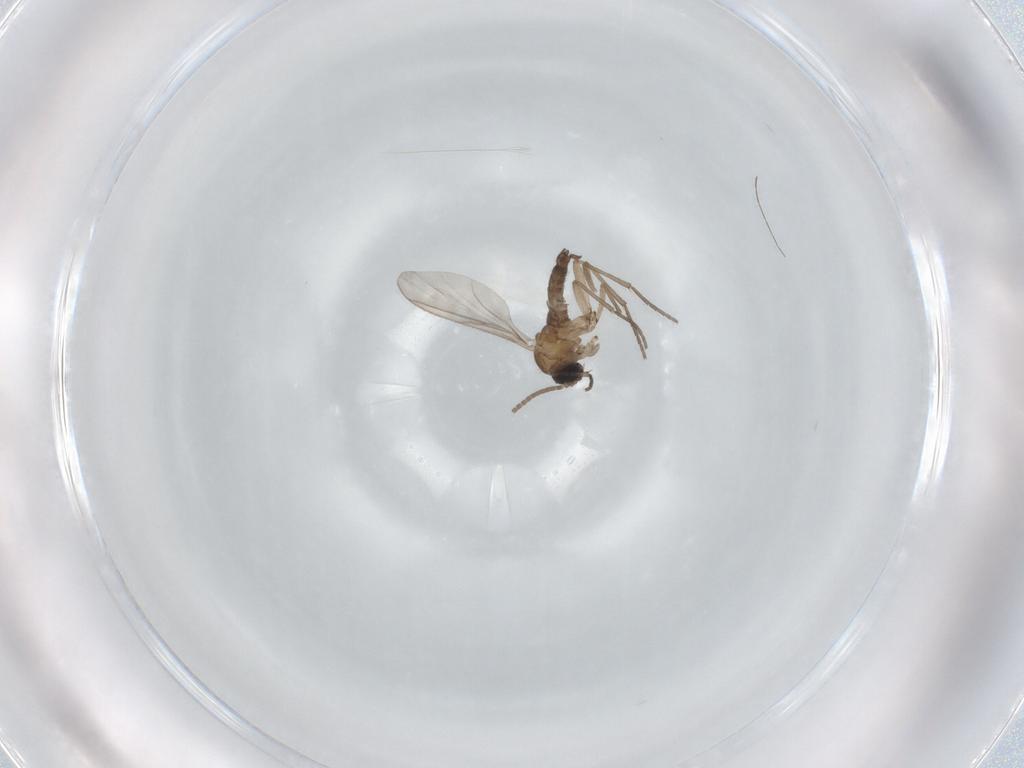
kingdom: Animalia
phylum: Arthropoda
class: Insecta
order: Diptera
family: Sciaridae
